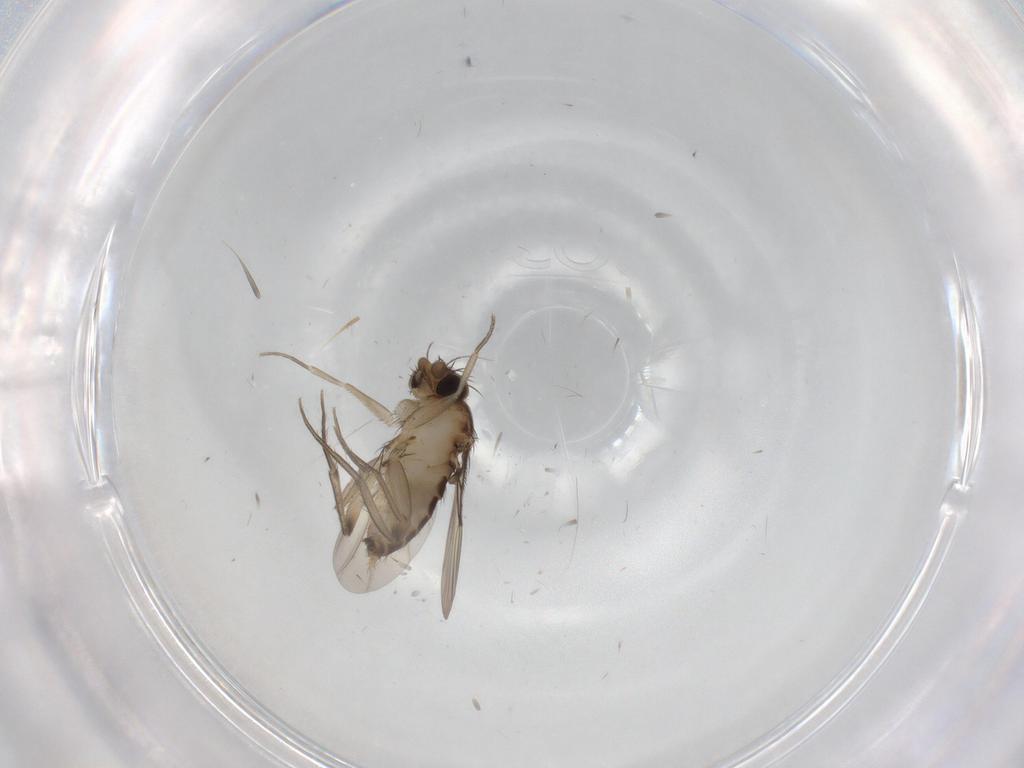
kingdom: Animalia
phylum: Arthropoda
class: Insecta
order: Diptera
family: Phoridae
